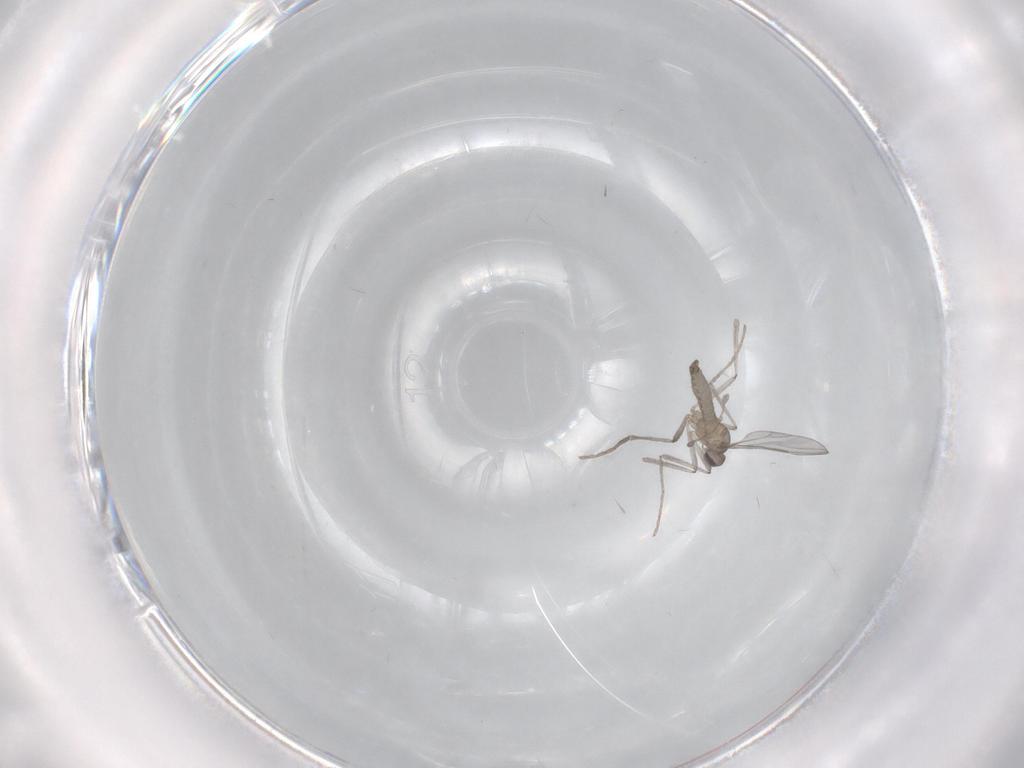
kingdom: Animalia
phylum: Arthropoda
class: Insecta
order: Diptera
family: Cecidomyiidae
